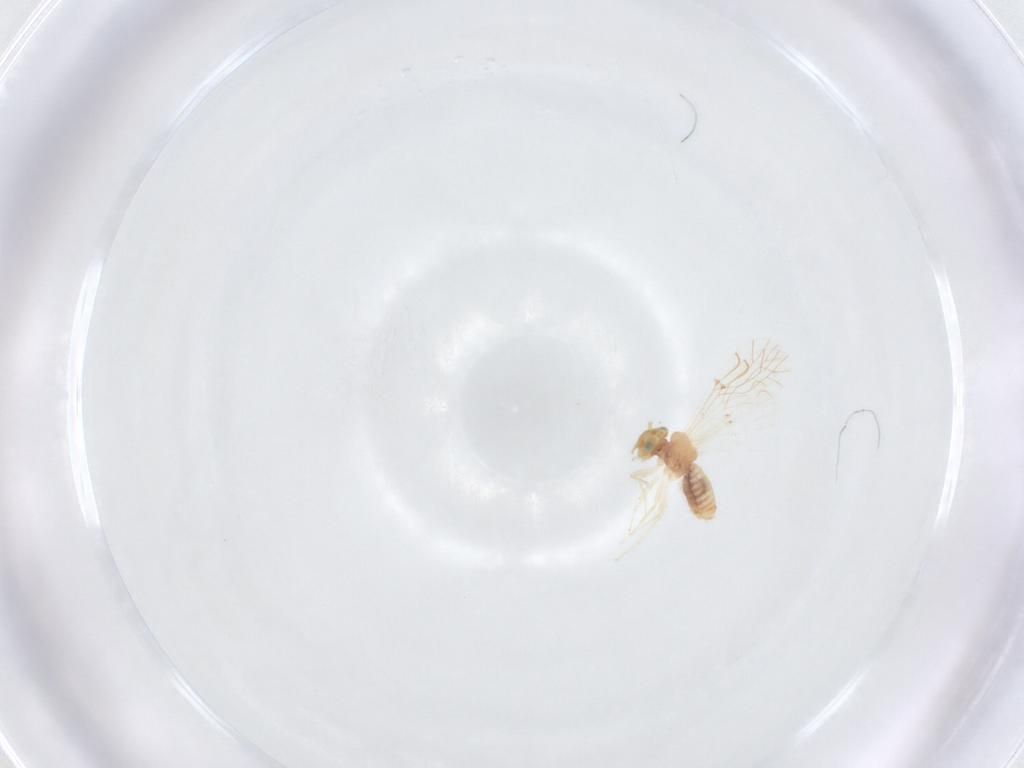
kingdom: Animalia
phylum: Arthropoda
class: Insecta
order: Psocodea
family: Lachesillidae
